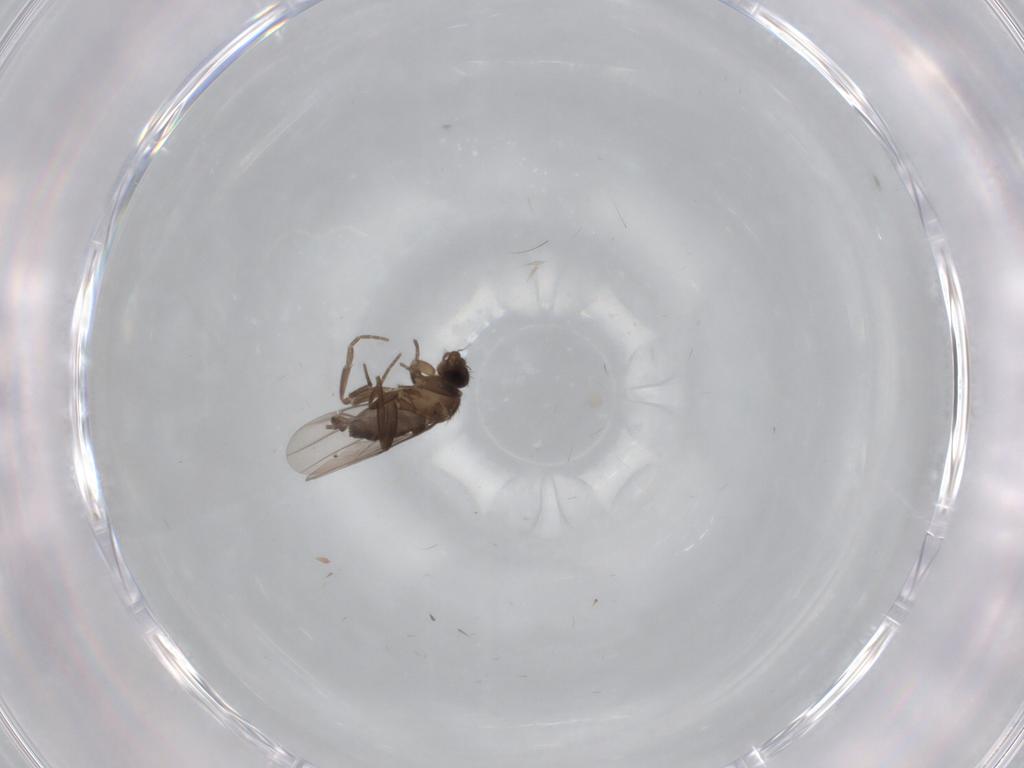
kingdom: Animalia
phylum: Arthropoda
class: Insecta
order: Diptera
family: Phoridae
